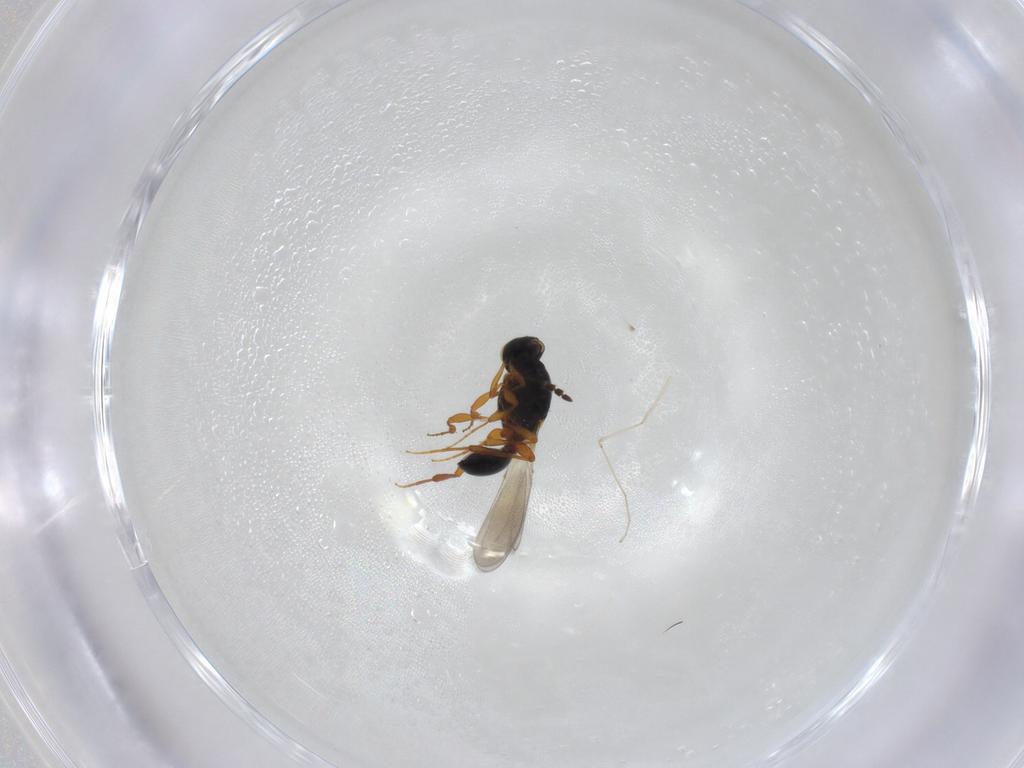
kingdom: Animalia
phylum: Arthropoda
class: Insecta
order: Hymenoptera
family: Platygastridae
